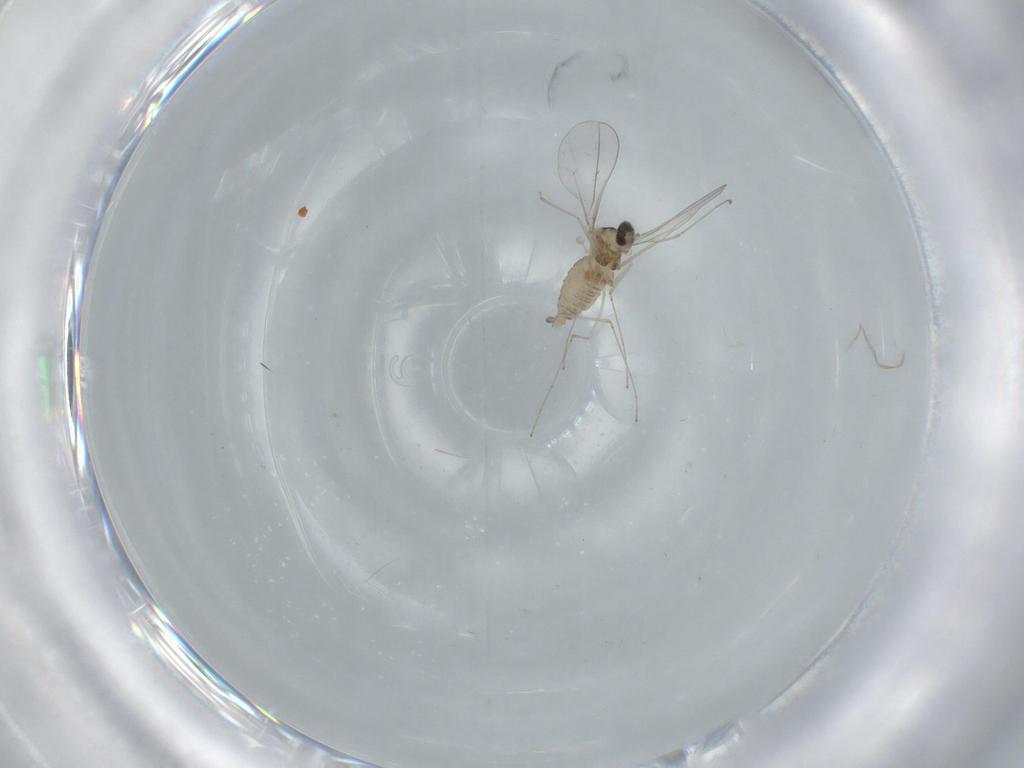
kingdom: Animalia
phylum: Arthropoda
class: Insecta
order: Diptera
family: Cecidomyiidae
